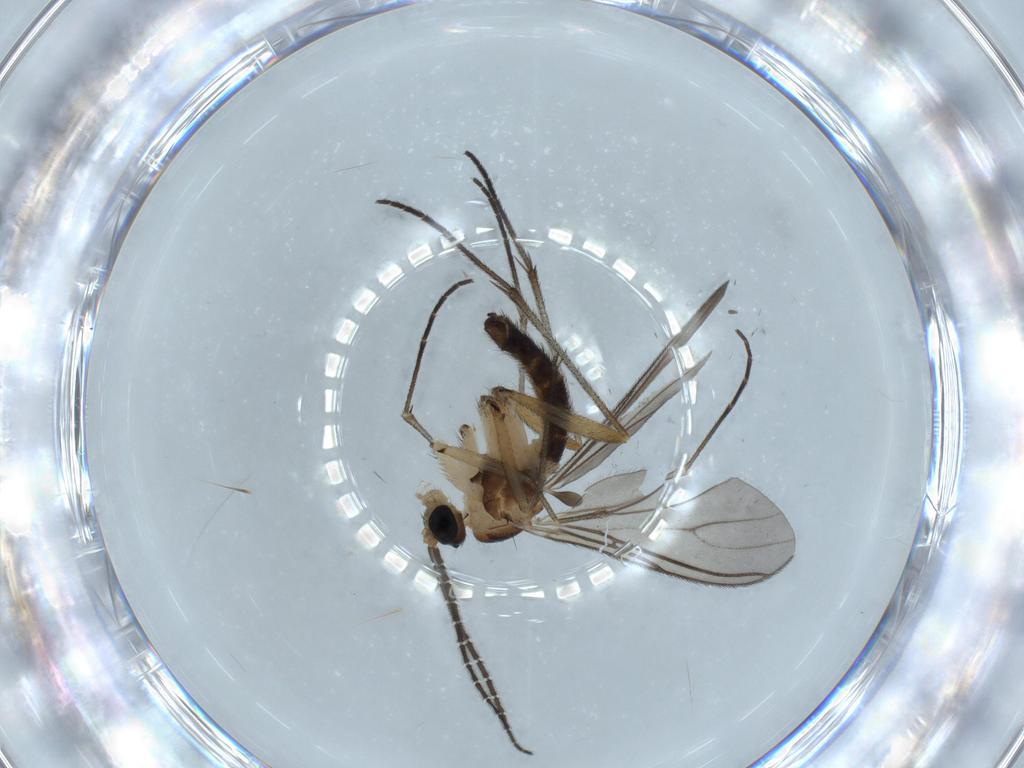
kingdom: Animalia
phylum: Arthropoda
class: Insecta
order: Diptera
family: Sciaridae
